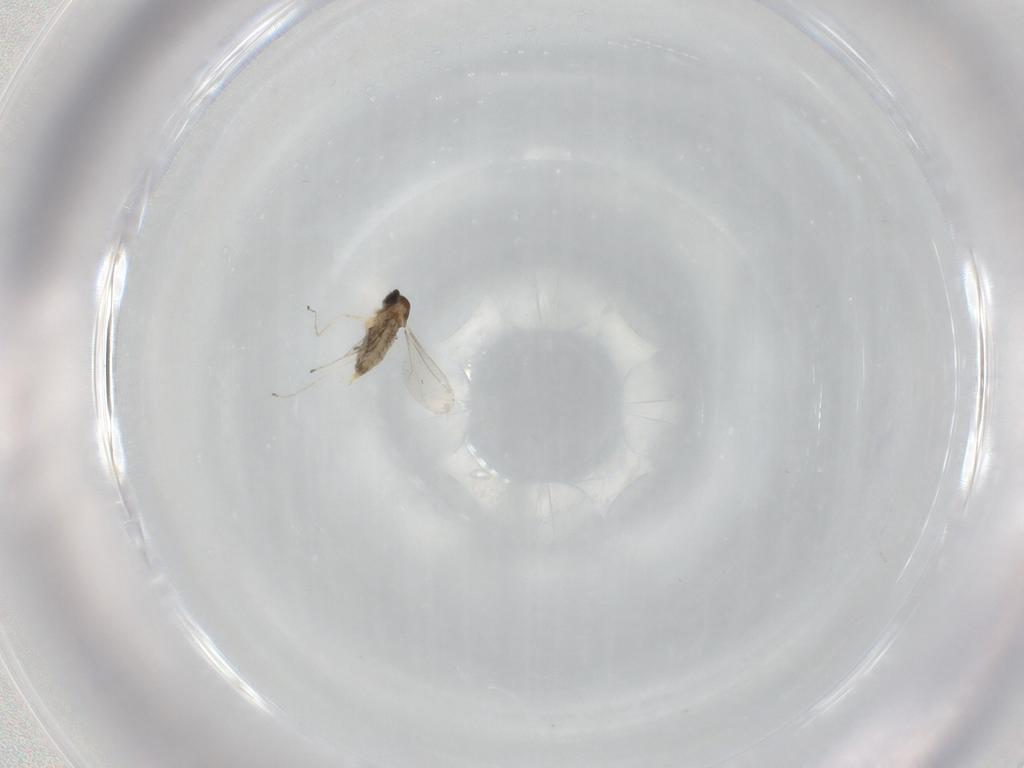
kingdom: Animalia
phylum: Arthropoda
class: Insecta
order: Diptera
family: Cecidomyiidae
